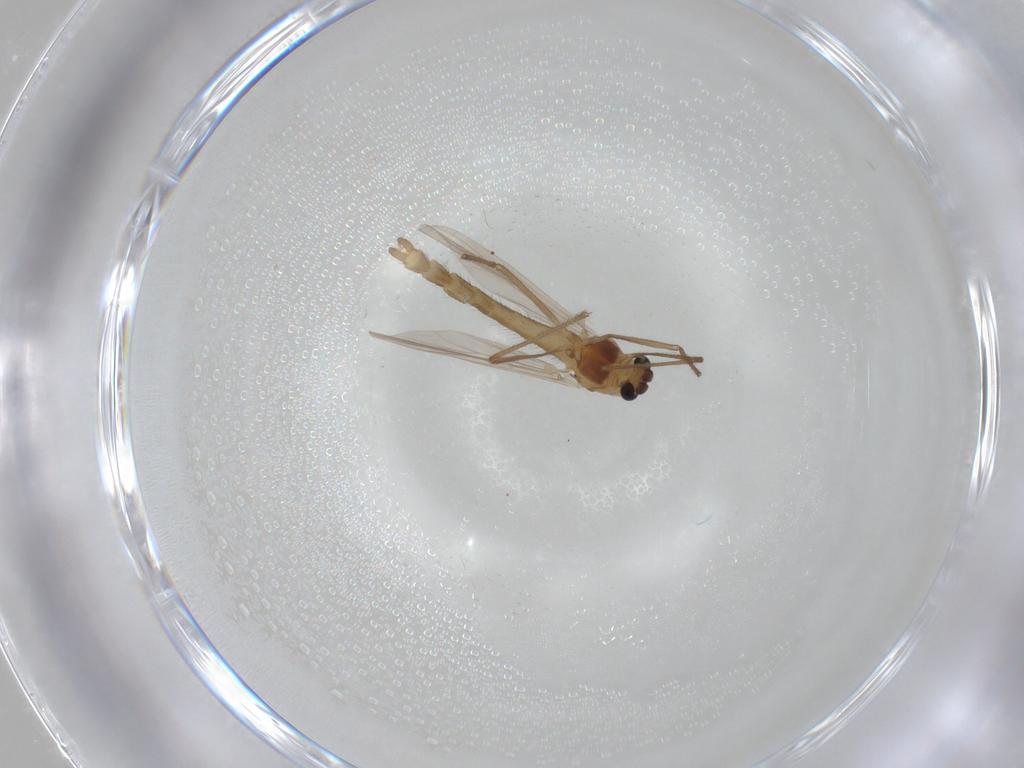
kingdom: Animalia
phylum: Arthropoda
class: Insecta
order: Diptera
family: Chironomidae
